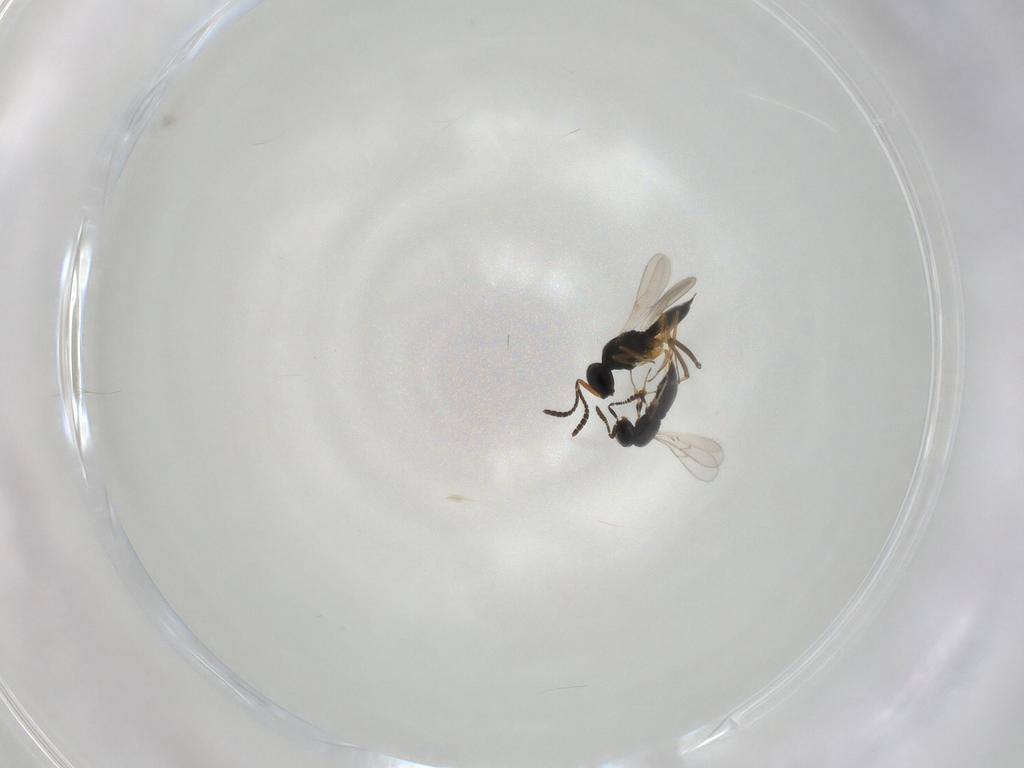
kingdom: Animalia
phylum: Arthropoda
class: Insecta
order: Hymenoptera
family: Scelionidae
